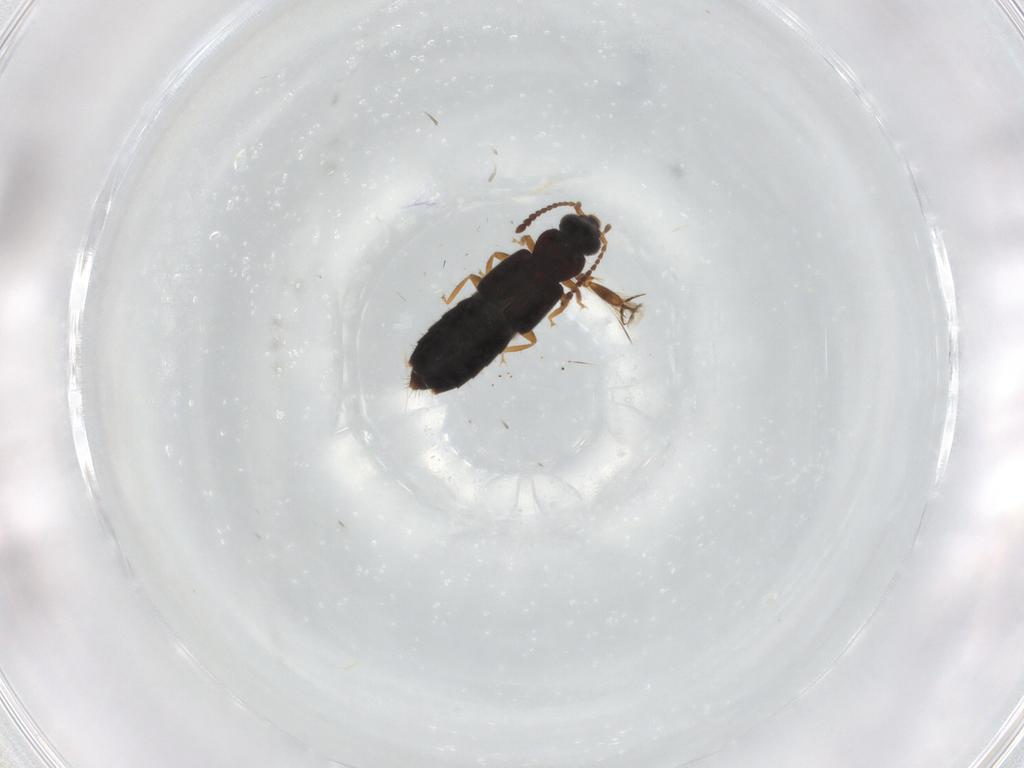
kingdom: Animalia
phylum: Arthropoda
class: Insecta
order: Coleoptera
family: Staphylinidae
